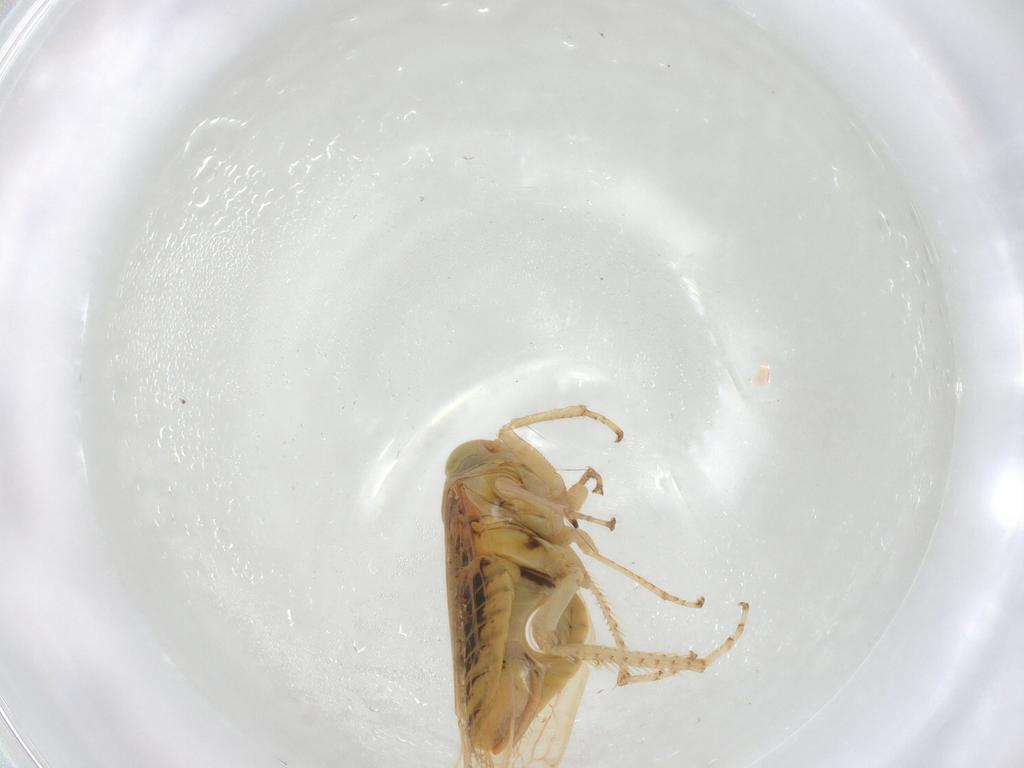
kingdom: Animalia
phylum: Arthropoda
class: Insecta
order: Hemiptera
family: Cicadellidae
